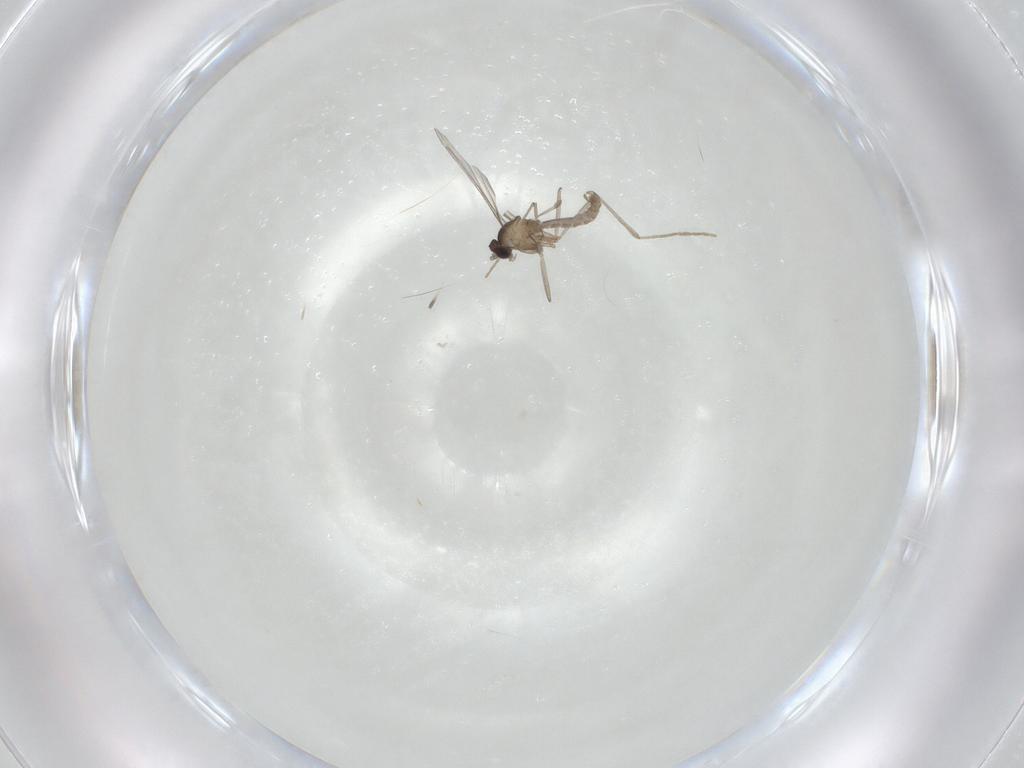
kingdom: Animalia
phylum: Arthropoda
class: Insecta
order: Diptera
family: Cecidomyiidae
